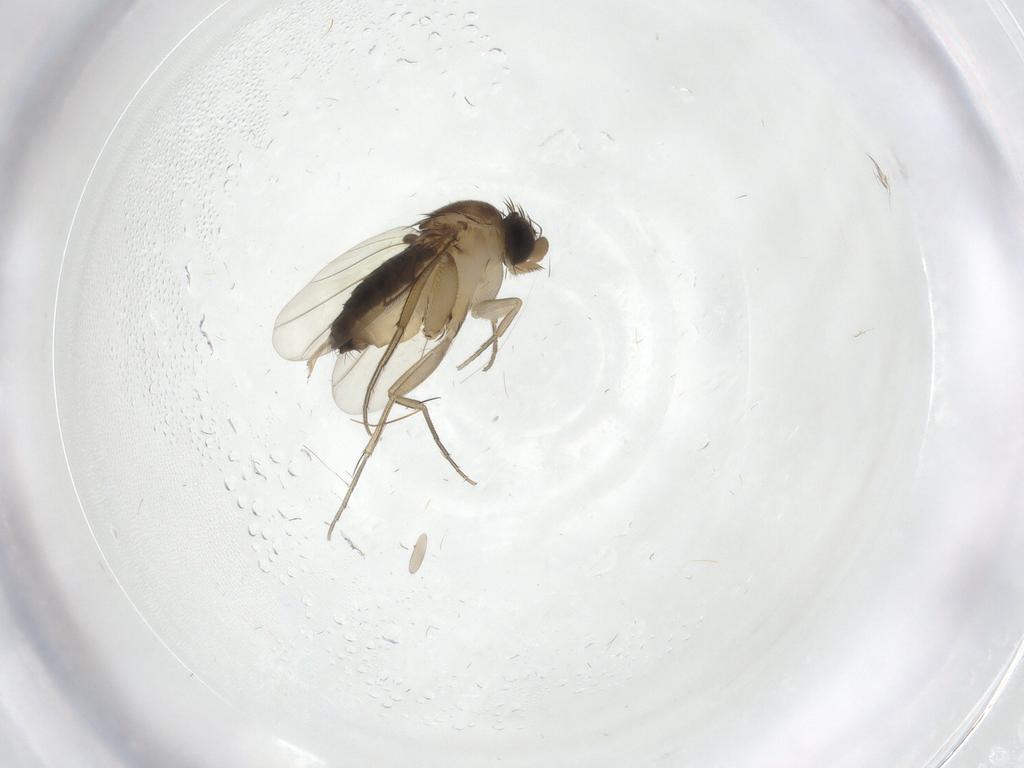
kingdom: Animalia
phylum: Arthropoda
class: Insecta
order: Diptera
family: Phoridae
